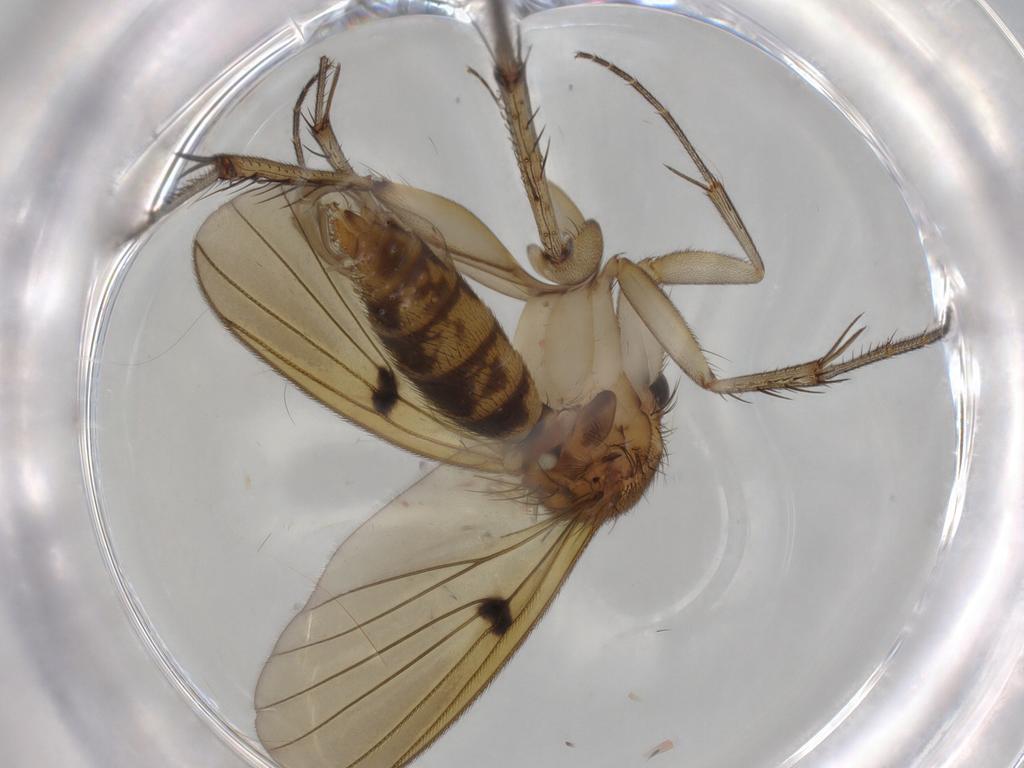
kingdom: Animalia
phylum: Arthropoda
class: Insecta
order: Diptera
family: Mycetophilidae
